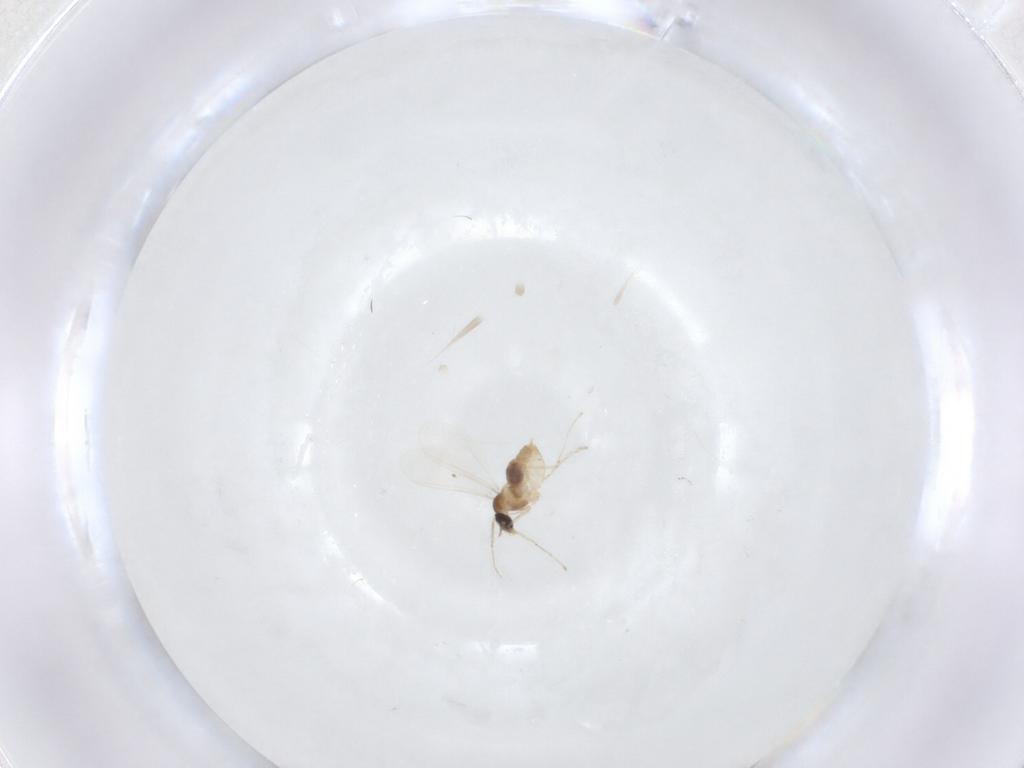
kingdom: Animalia
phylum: Arthropoda
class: Insecta
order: Diptera
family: Cecidomyiidae
